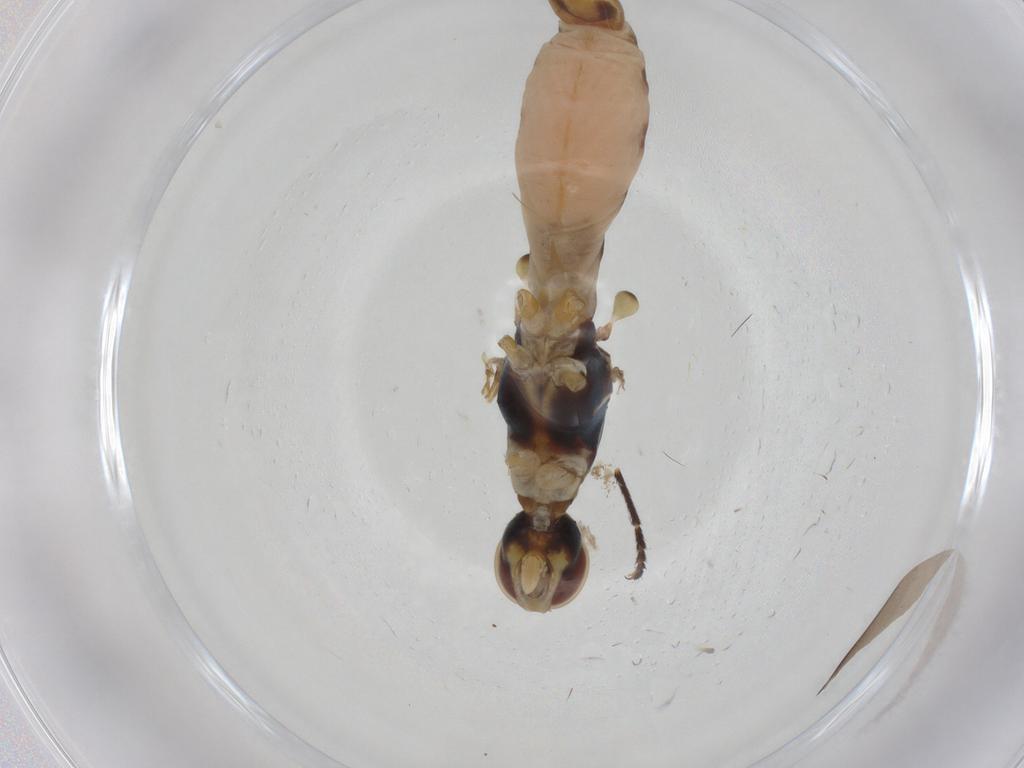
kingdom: Animalia
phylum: Arthropoda
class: Insecta
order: Diptera
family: Micropezidae
